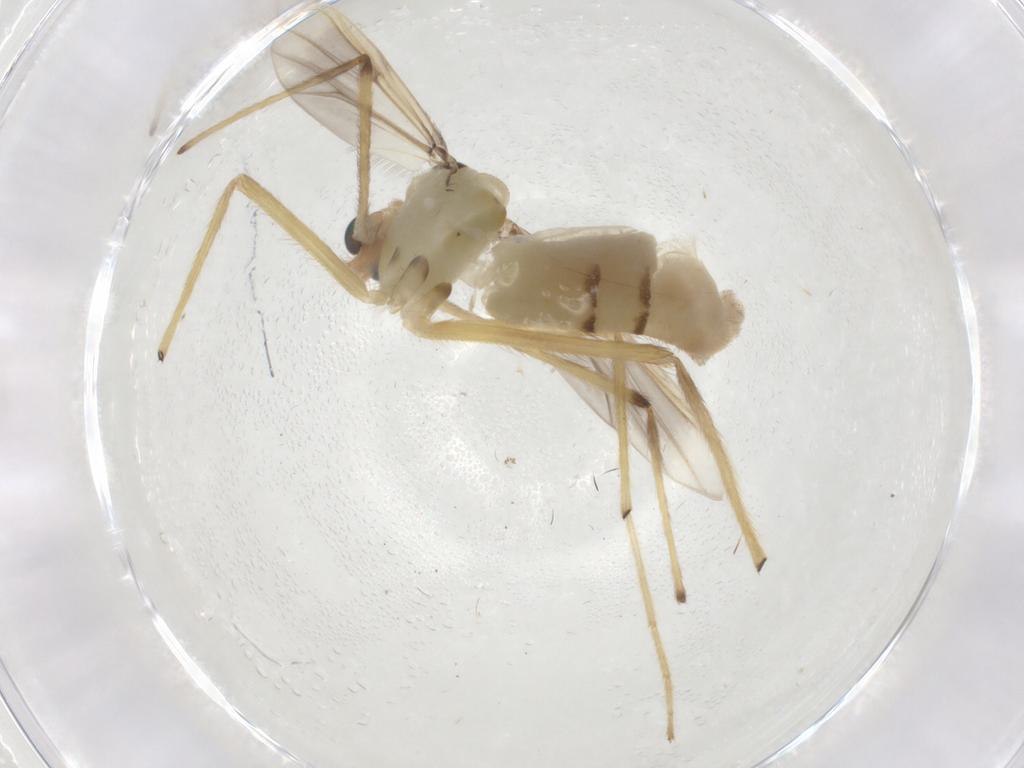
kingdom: Animalia
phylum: Arthropoda
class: Insecta
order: Diptera
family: Chironomidae
